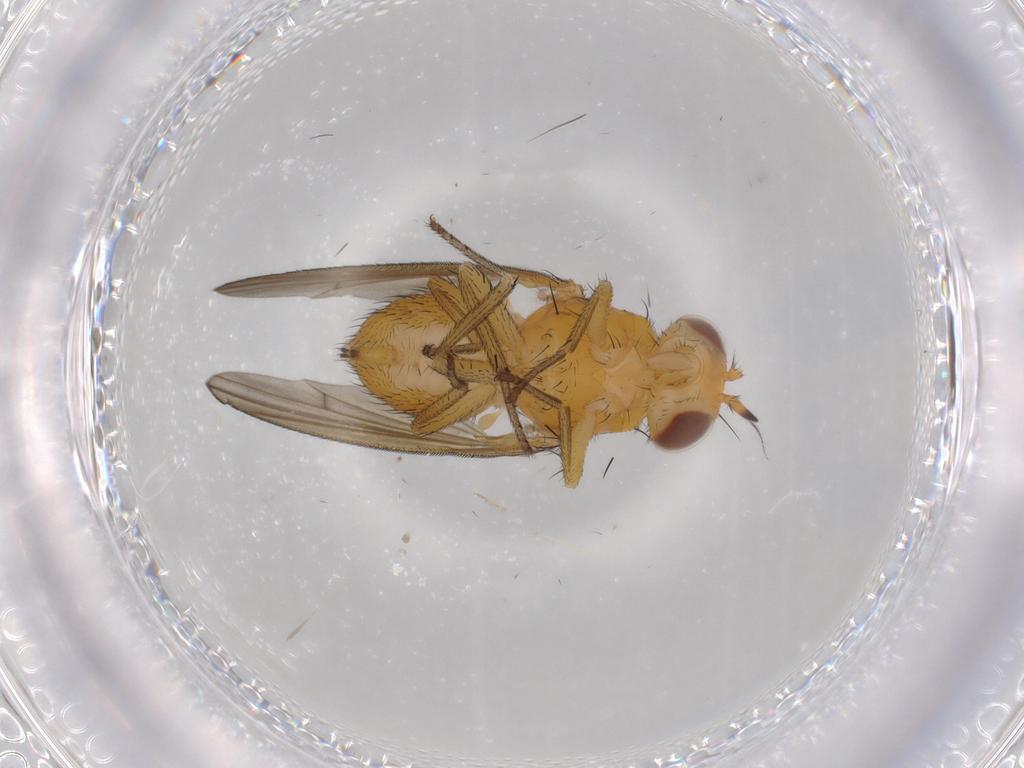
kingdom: Animalia
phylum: Arthropoda
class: Insecta
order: Diptera
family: Lauxaniidae
